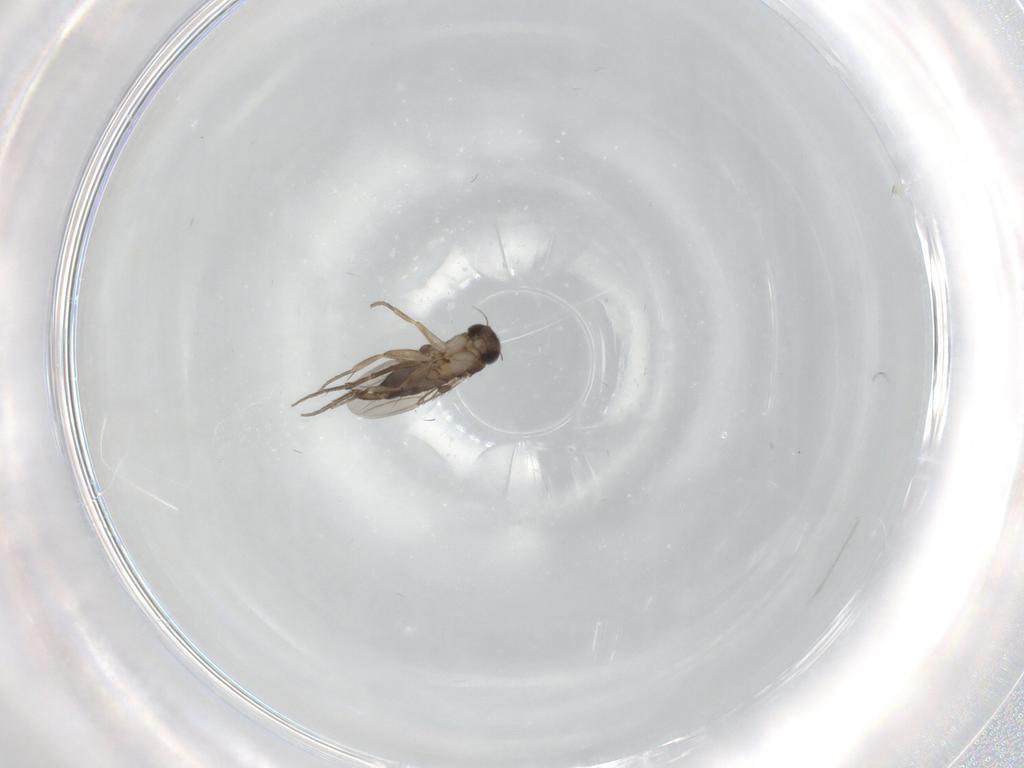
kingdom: Animalia
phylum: Arthropoda
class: Insecta
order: Diptera
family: Phoridae
